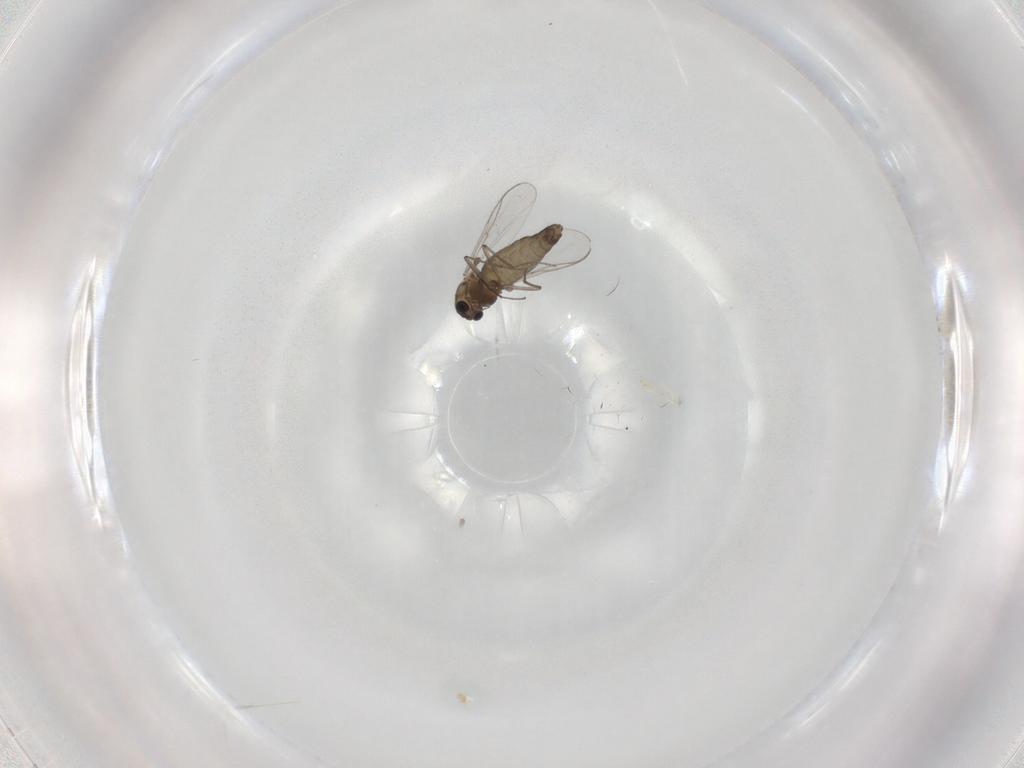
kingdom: Animalia
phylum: Arthropoda
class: Insecta
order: Diptera
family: Chironomidae
